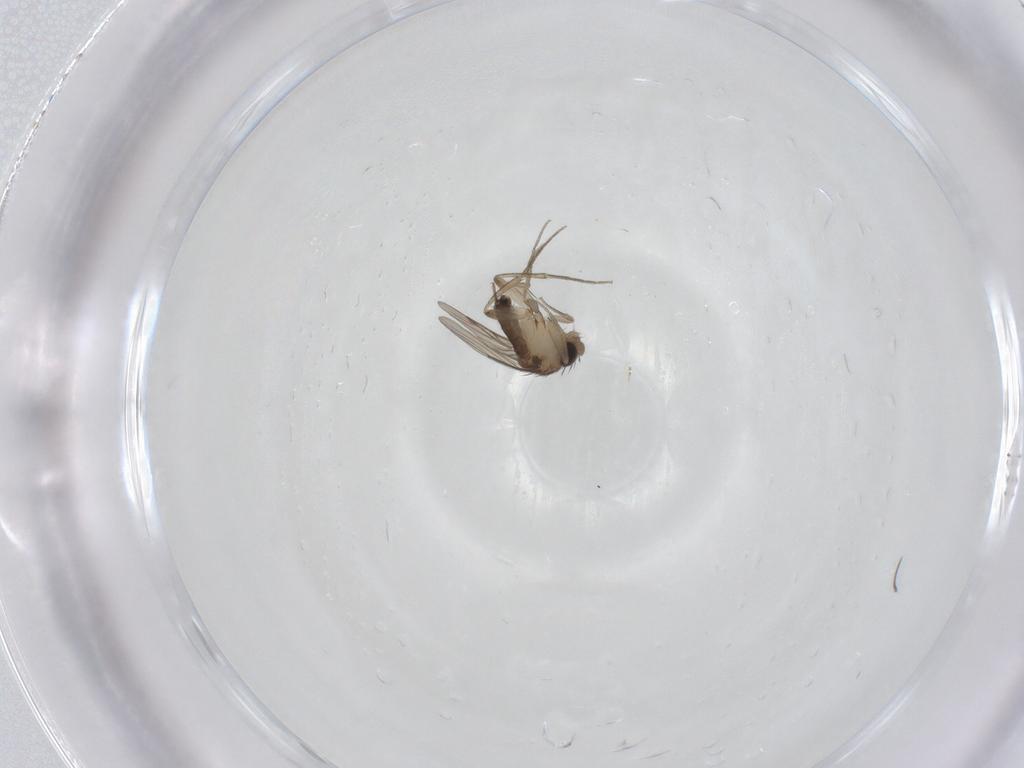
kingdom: Animalia
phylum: Arthropoda
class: Insecta
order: Diptera
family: Phoridae
